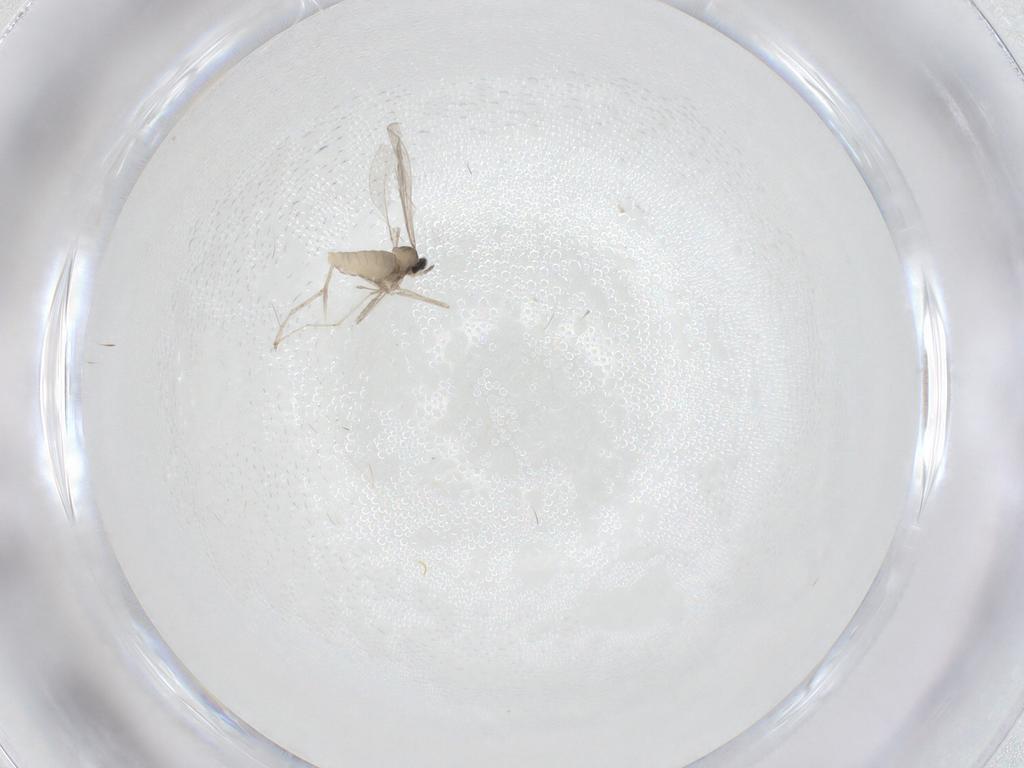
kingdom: Animalia
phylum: Arthropoda
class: Insecta
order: Diptera
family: Cecidomyiidae
